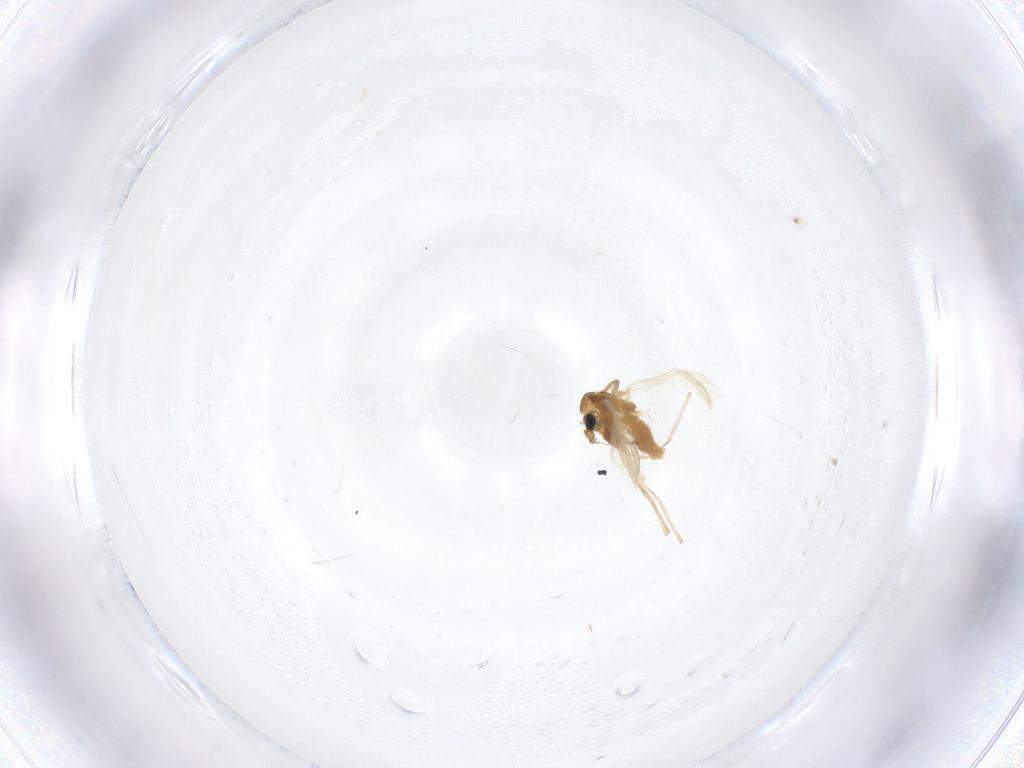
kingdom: Animalia
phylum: Arthropoda
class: Insecta
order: Diptera
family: Chironomidae
